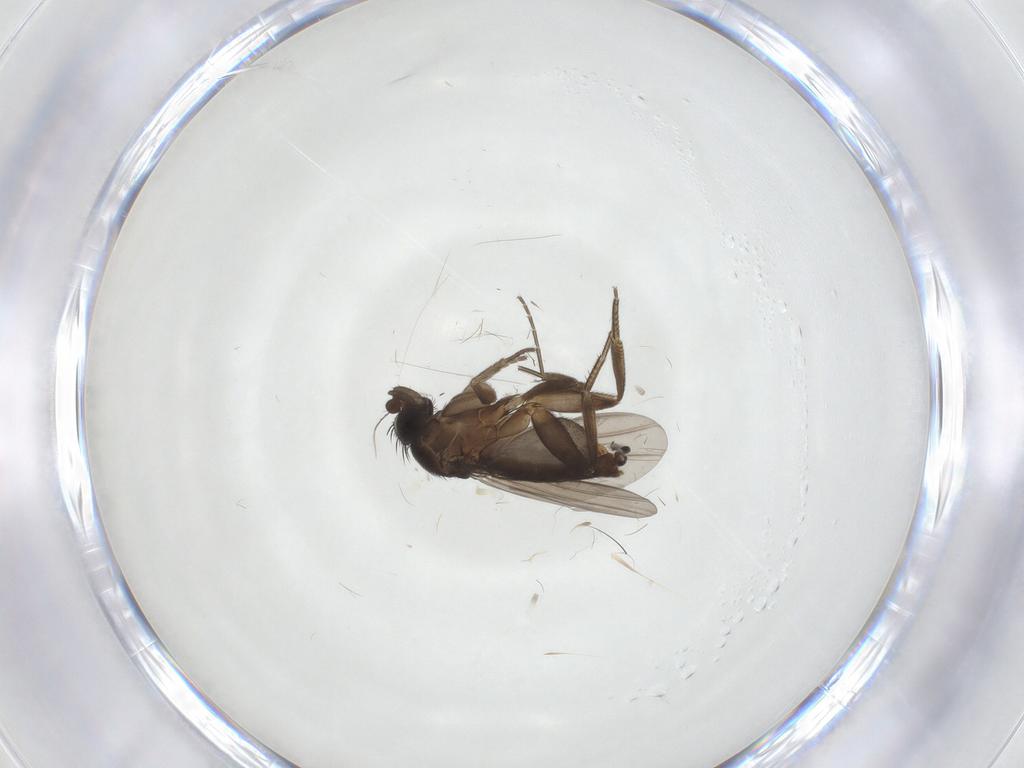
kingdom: Animalia
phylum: Arthropoda
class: Insecta
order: Diptera
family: Phoridae
